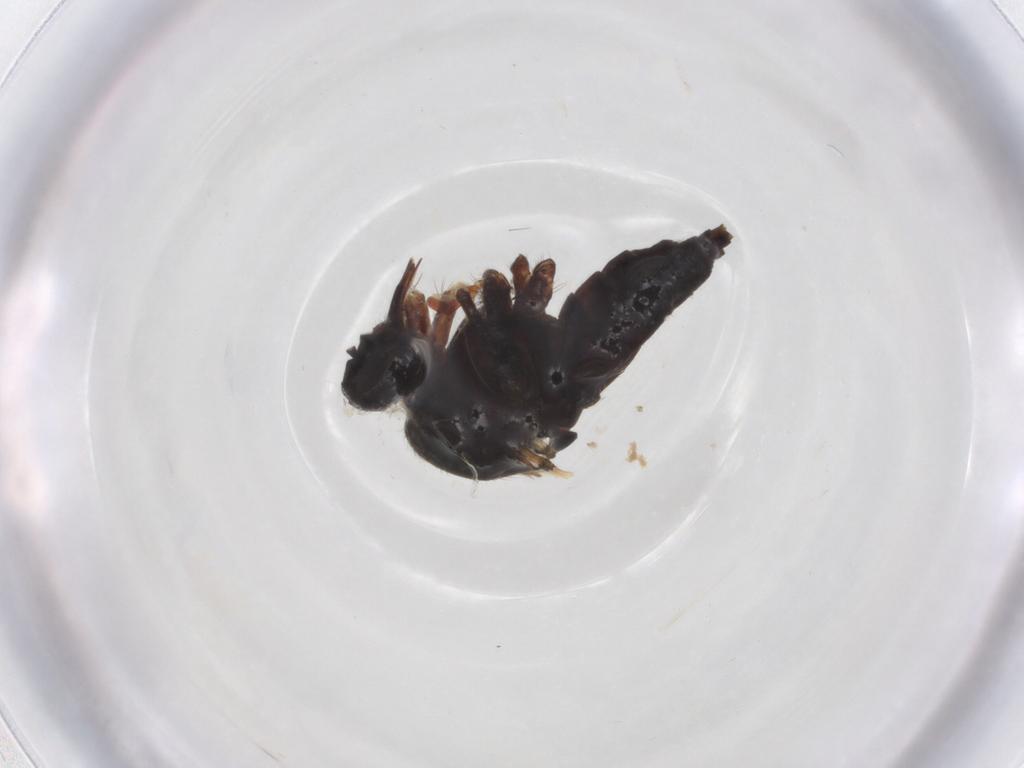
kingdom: Animalia
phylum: Arthropoda
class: Insecta
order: Diptera
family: Empididae
